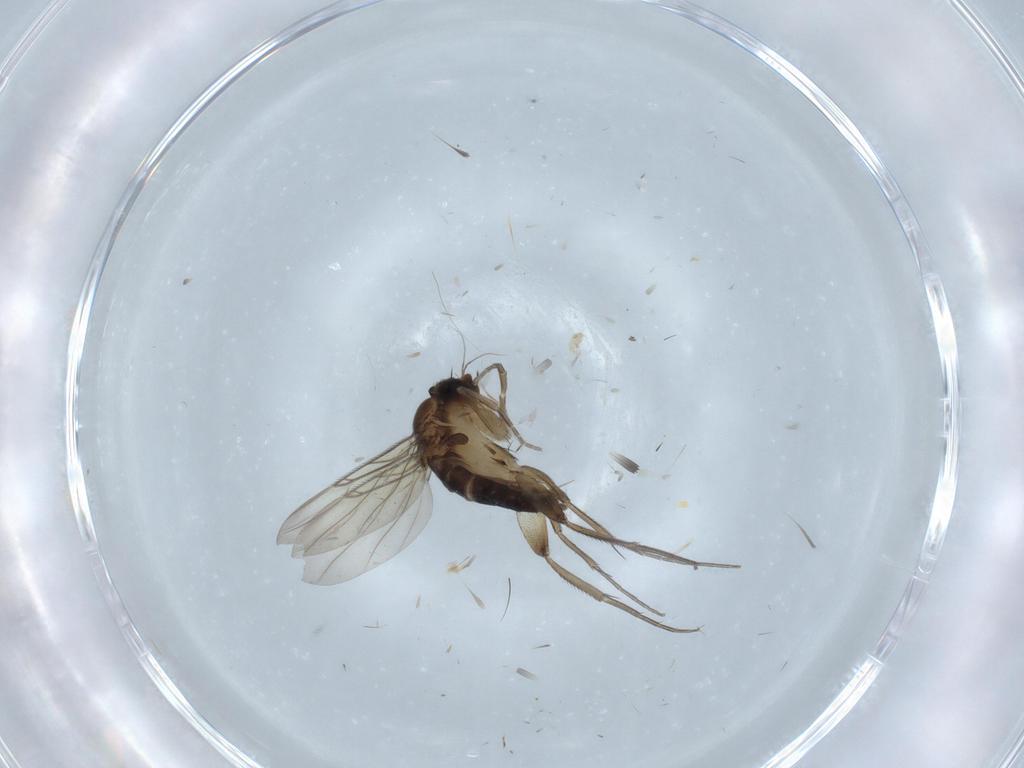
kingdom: Animalia
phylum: Arthropoda
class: Insecta
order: Diptera
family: Phoridae
